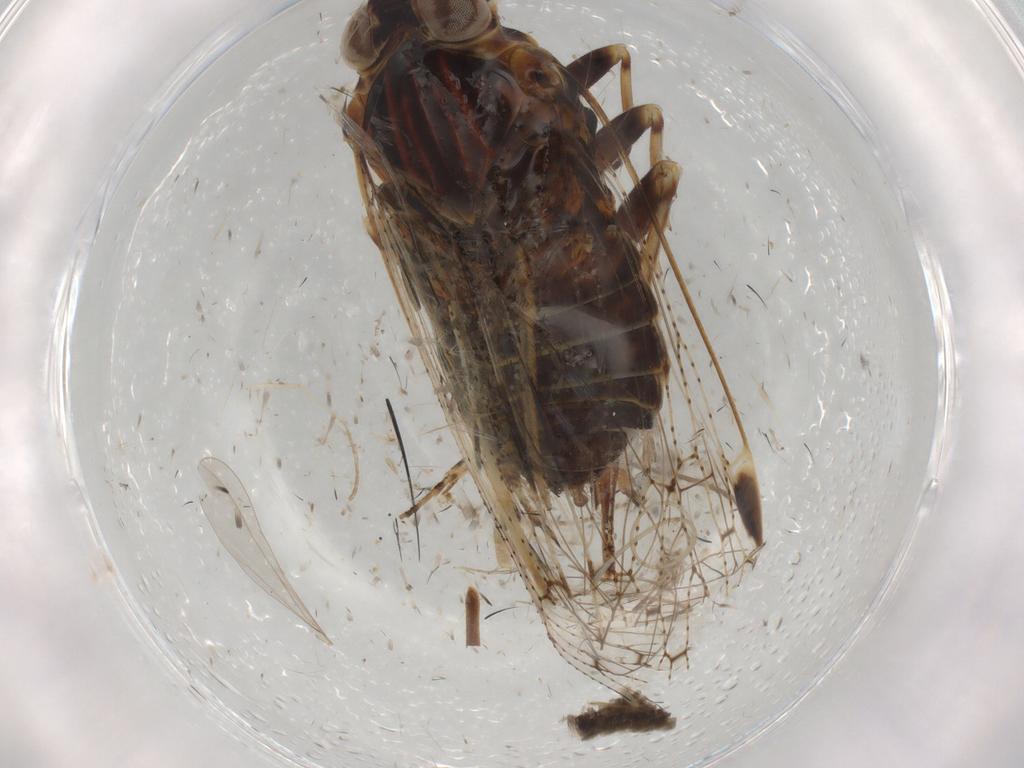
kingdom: Animalia
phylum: Arthropoda
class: Insecta
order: Hemiptera
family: Cixiidae
